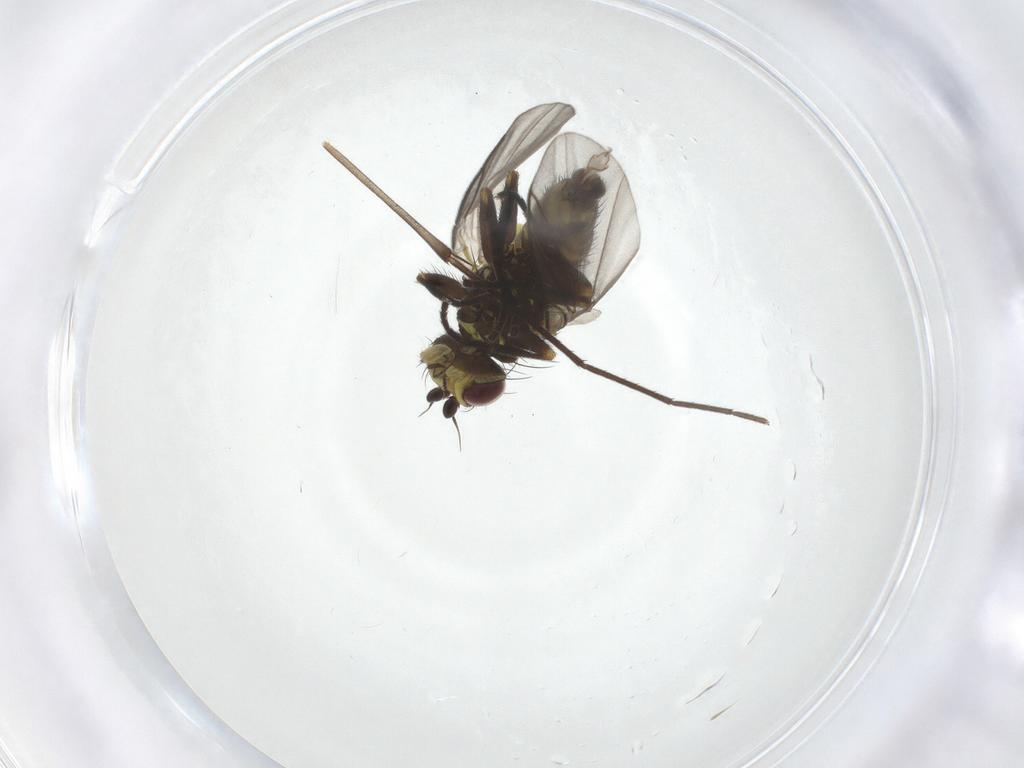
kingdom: Animalia
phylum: Arthropoda
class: Insecta
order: Diptera
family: Agromyzidae
